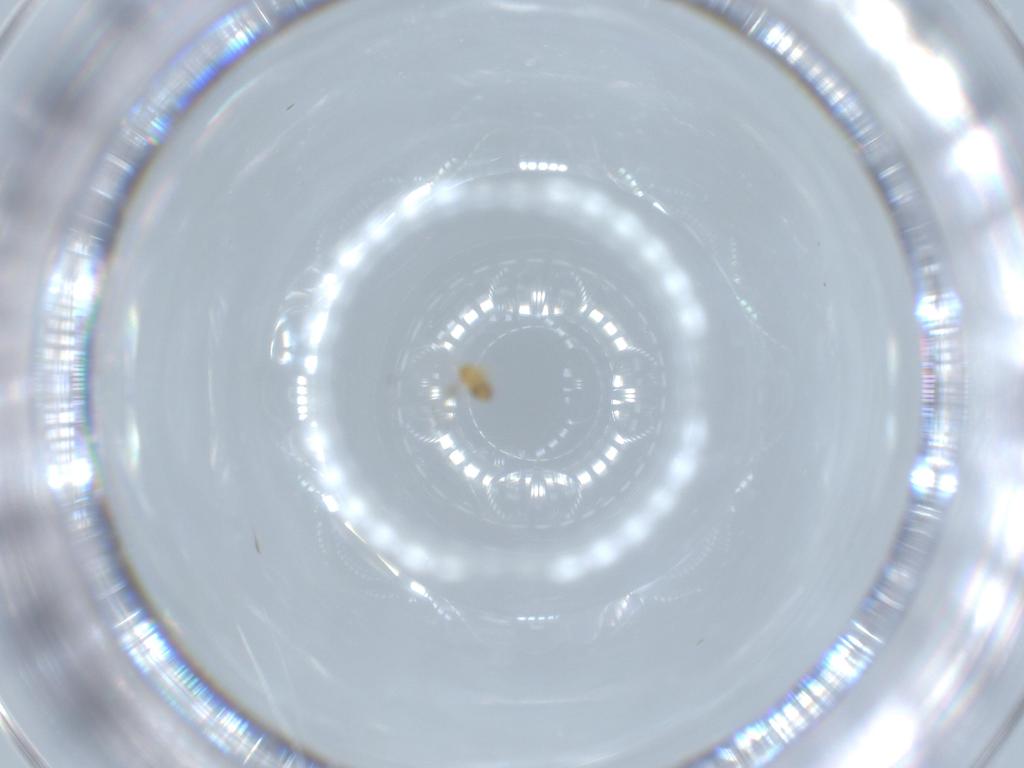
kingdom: Animalia
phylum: Arthropoda
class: Insecta
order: Hymenoptera
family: Trichogrammatidae
